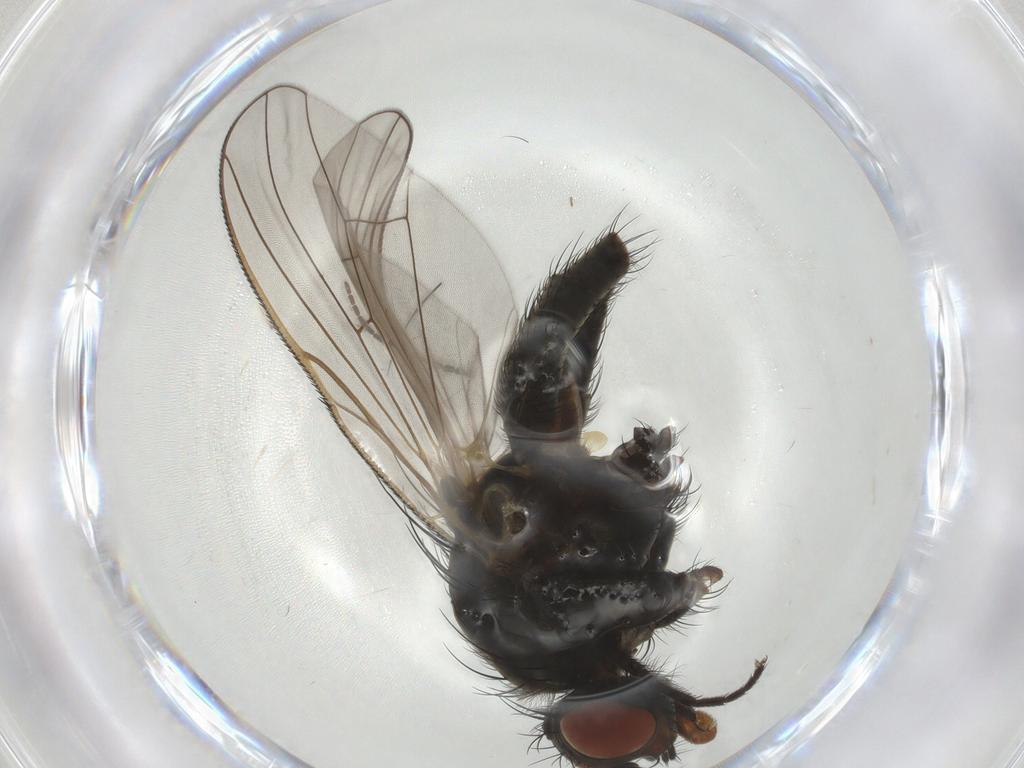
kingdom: Animalia
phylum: Arthropoda
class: Insecta
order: Diptera
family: Anthomyiidae
